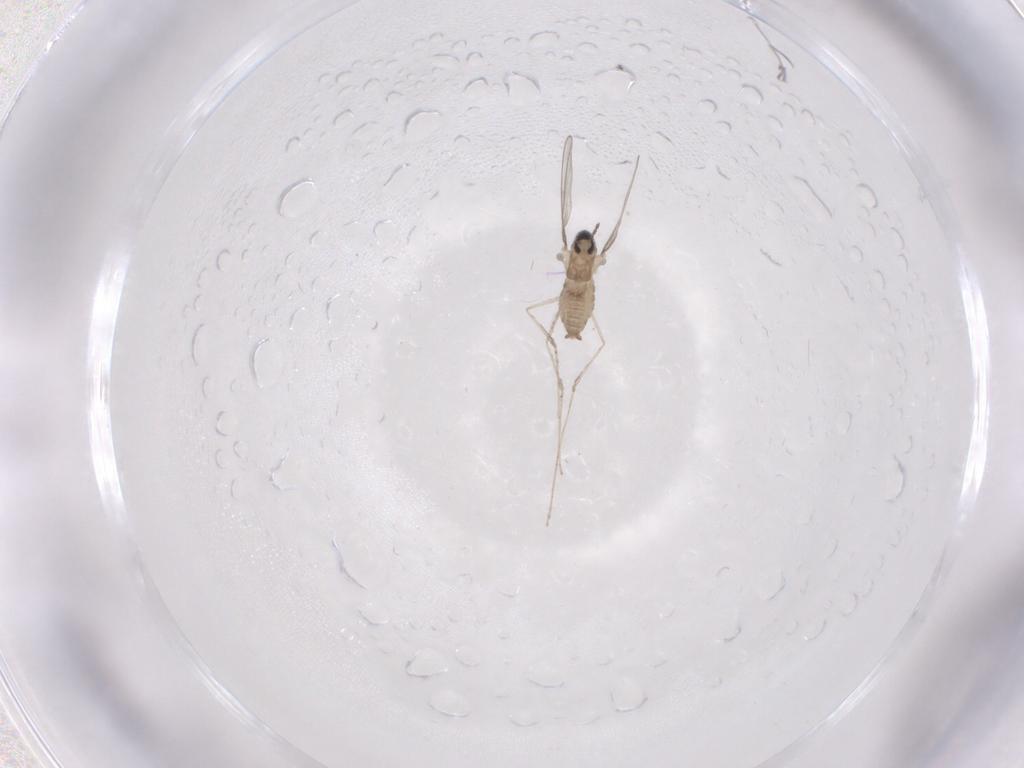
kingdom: Animalia
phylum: Arthropoda
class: Insecta
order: Diptera
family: Cecidomyiidae
